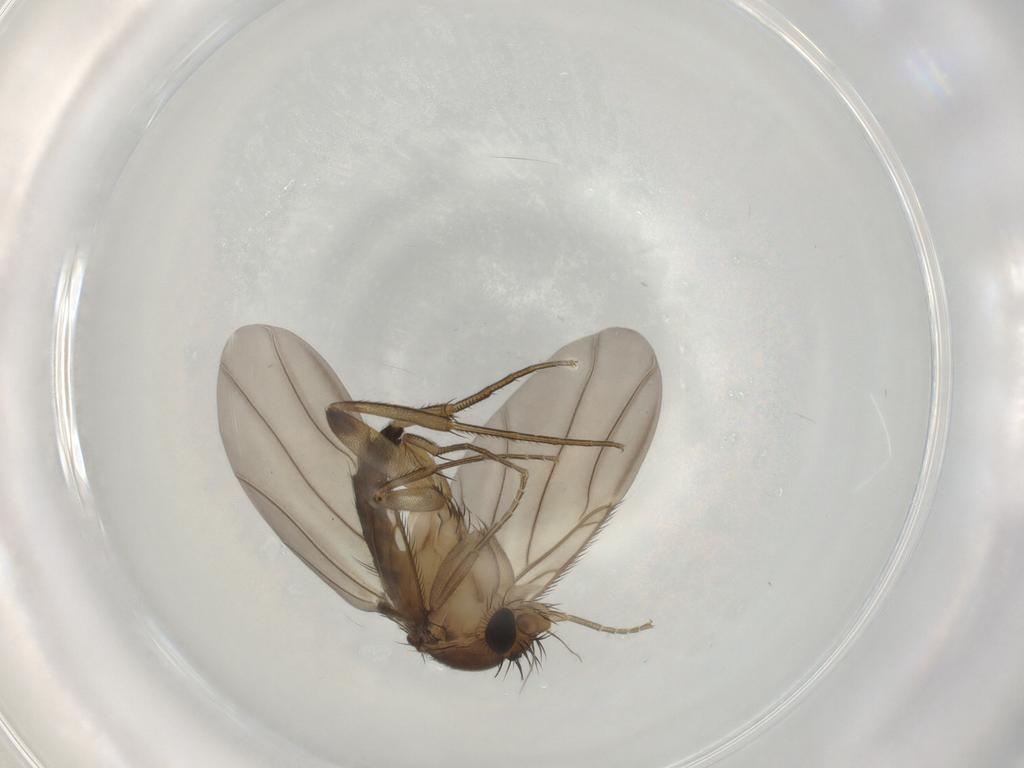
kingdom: Animalia
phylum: Arthropoda
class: Insecta
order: Diptera
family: Phoridae
